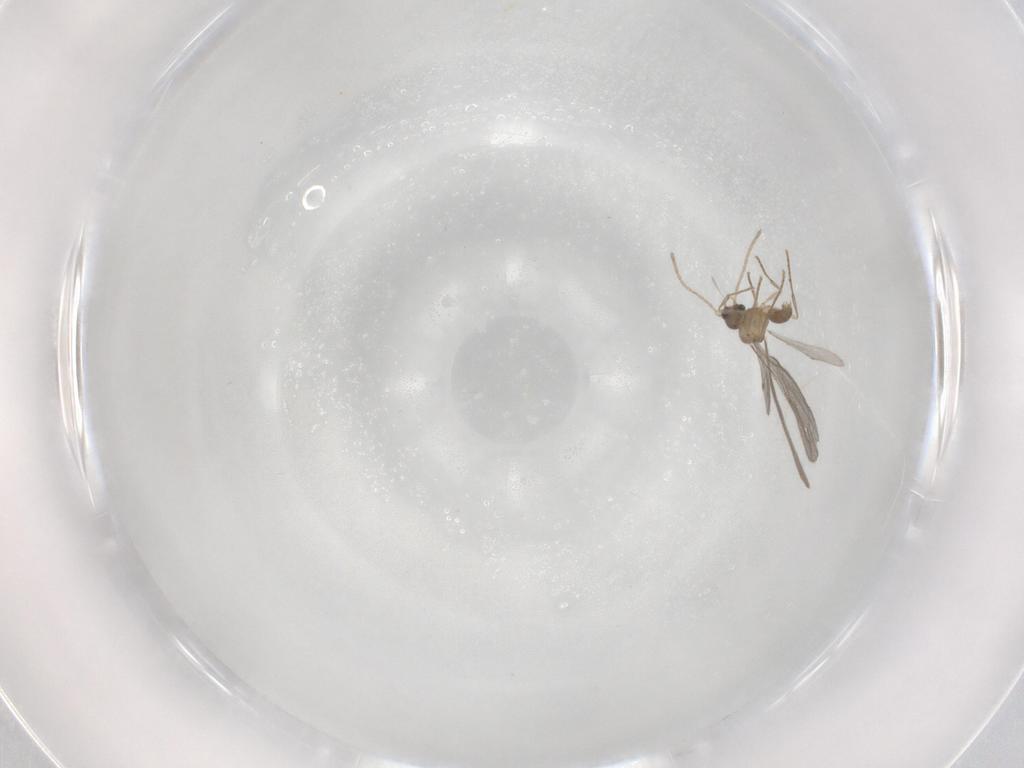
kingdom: Animalia
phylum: Arthropoda
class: Insecta
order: Hymenoptera
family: Formicidae
